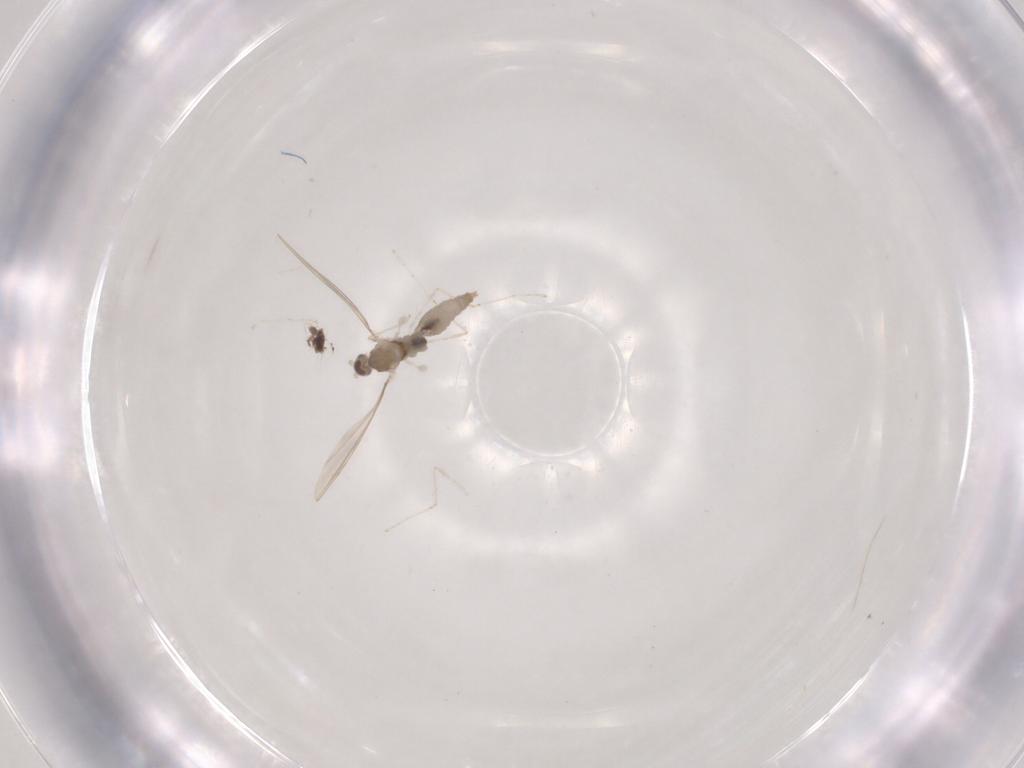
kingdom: Animalia
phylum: Arthropoda
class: Insecta
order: Diptera
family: Cecidomyiidae
